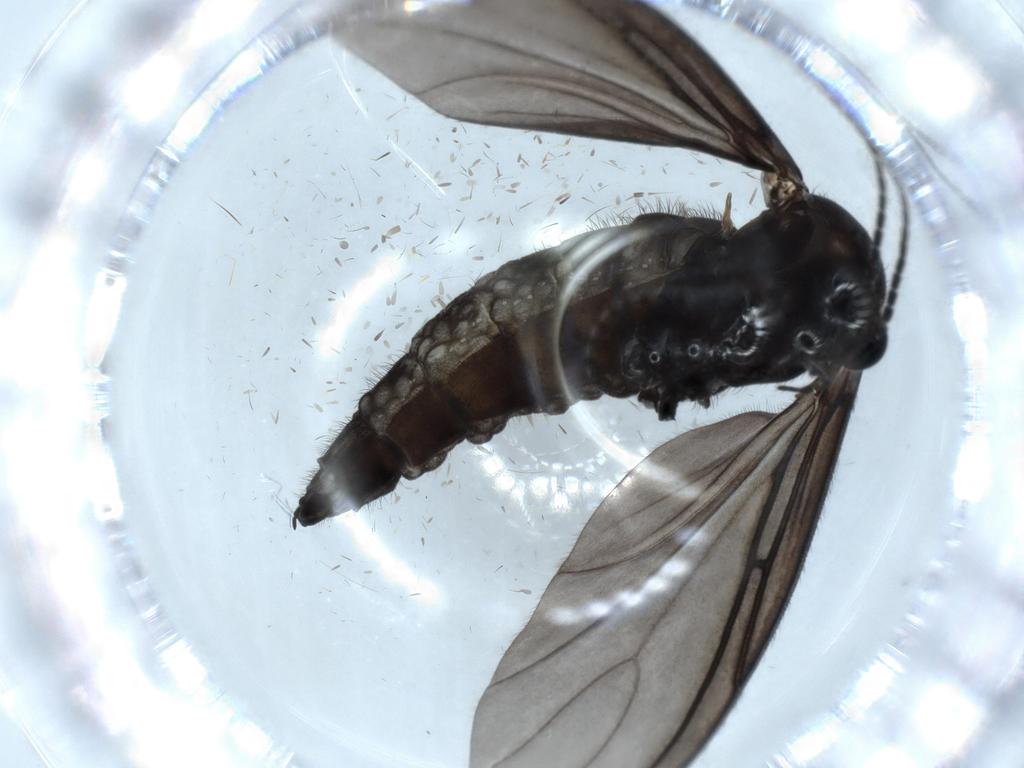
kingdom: Animalia
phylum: Arthropoda
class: Insecta
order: Diptera
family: Sciaridae
